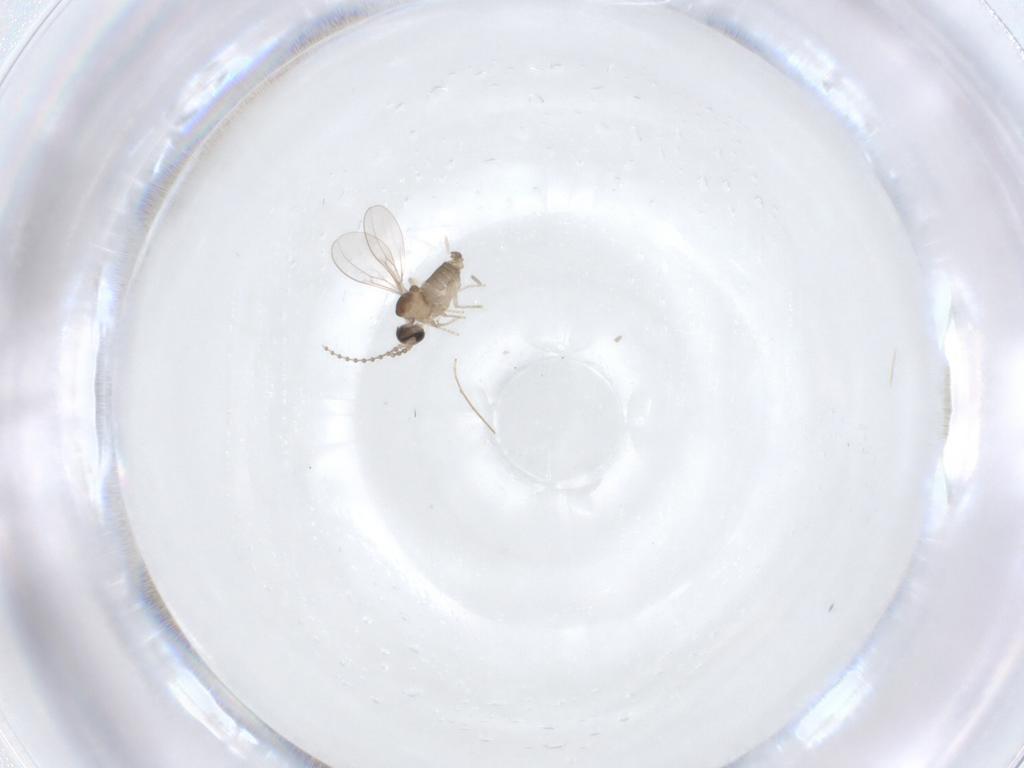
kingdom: Animalia
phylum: Arthropoda
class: Insecta
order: Diptera
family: Cecidomyiidae
